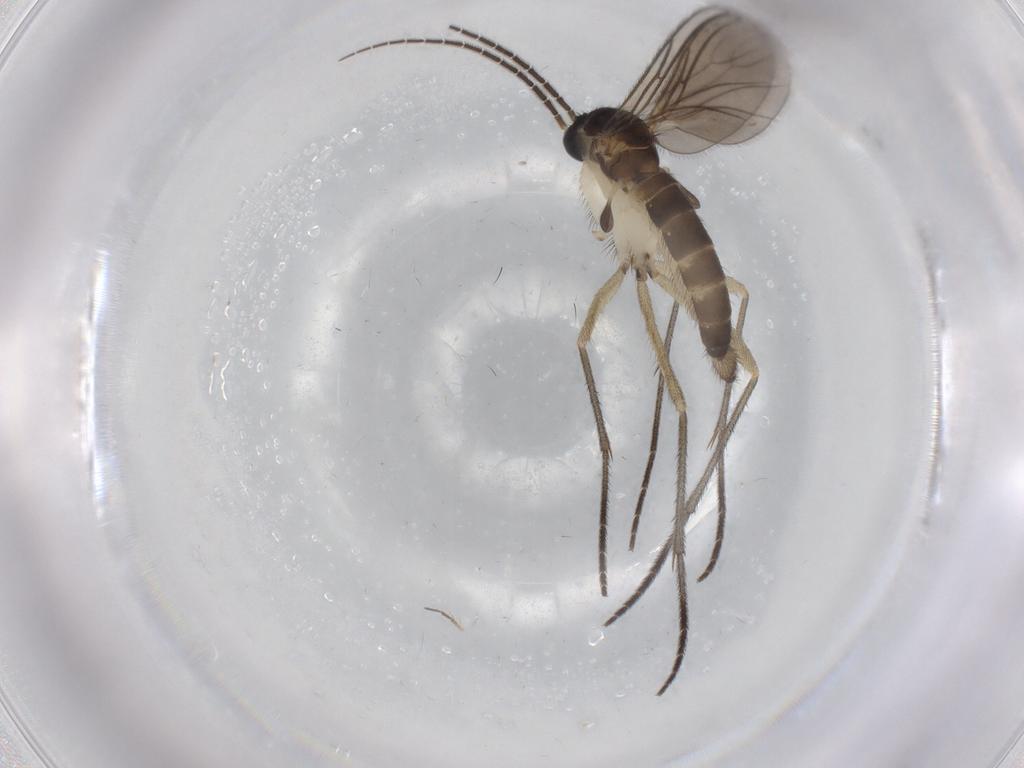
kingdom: Animalia
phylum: Arthropoda
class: Insecta
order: Diptera
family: Sciaridae
